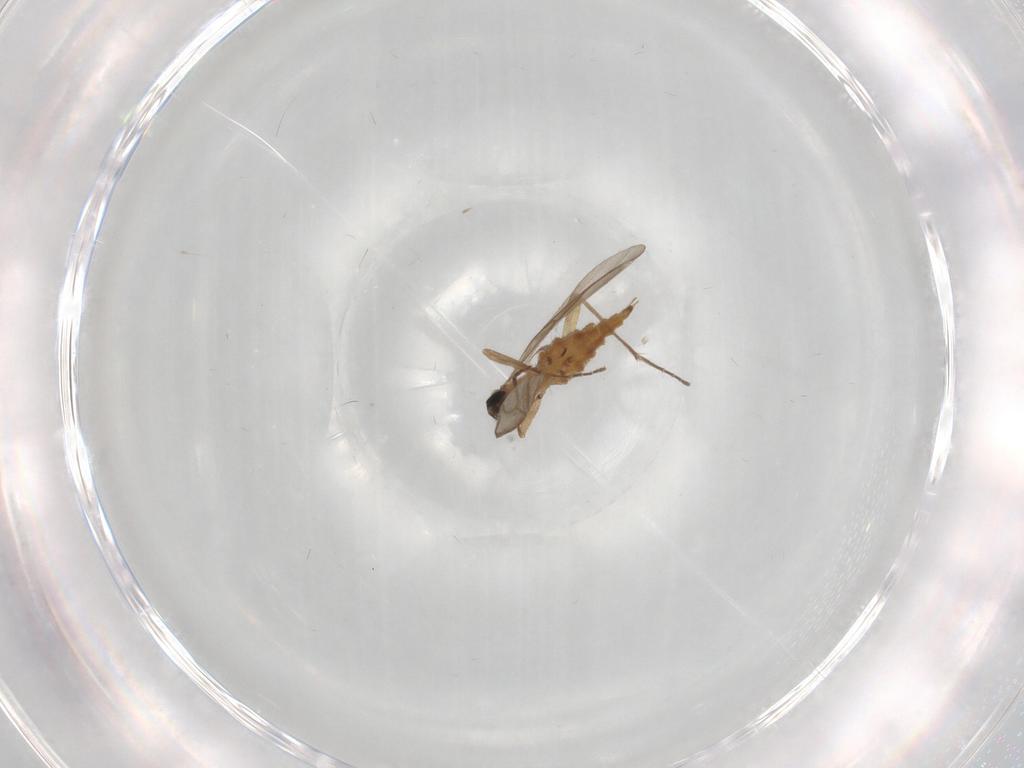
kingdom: Animalia
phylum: Arthropoda
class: Insecta
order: Diptera
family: Sciaridae
